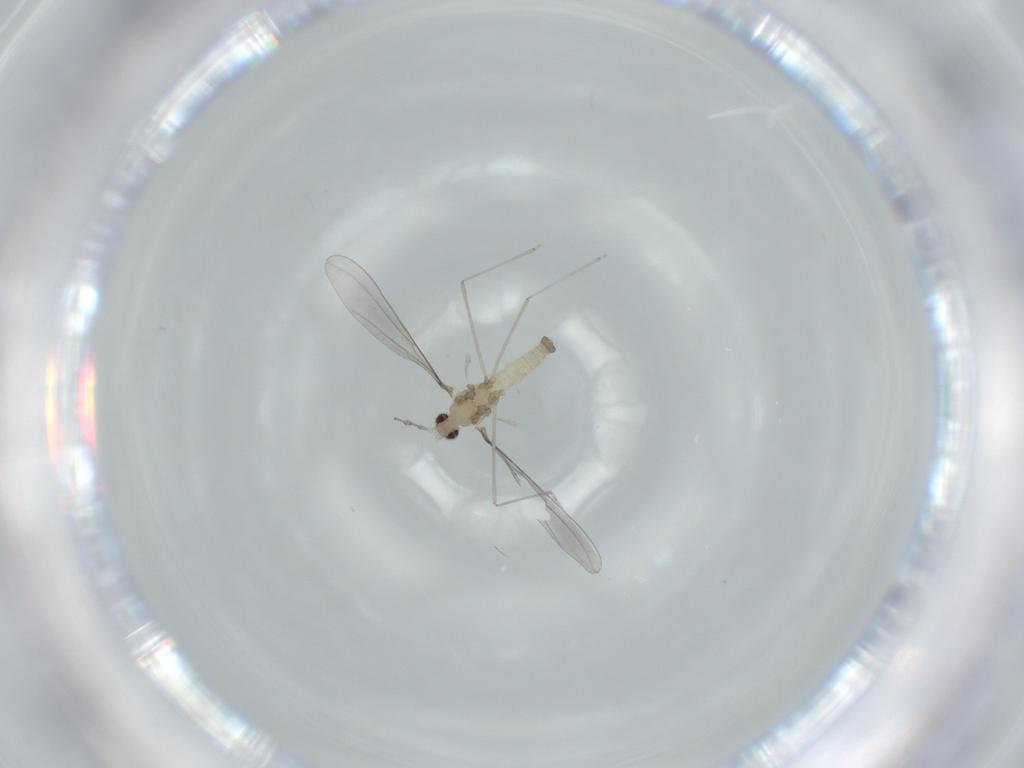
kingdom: Animalia
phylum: Arthropoda
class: Insecta
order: Diptera
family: Cecidomyiidae
